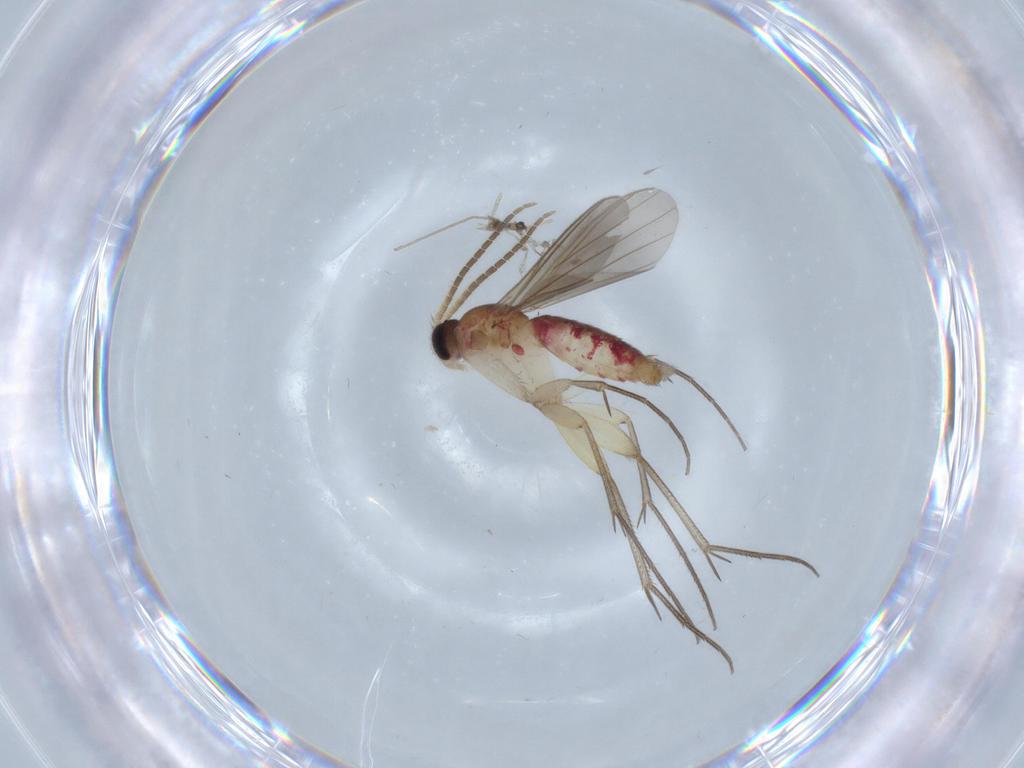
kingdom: Animalia
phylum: Arthropoda
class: Insecta
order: Diptera
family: Mycetophilidae
